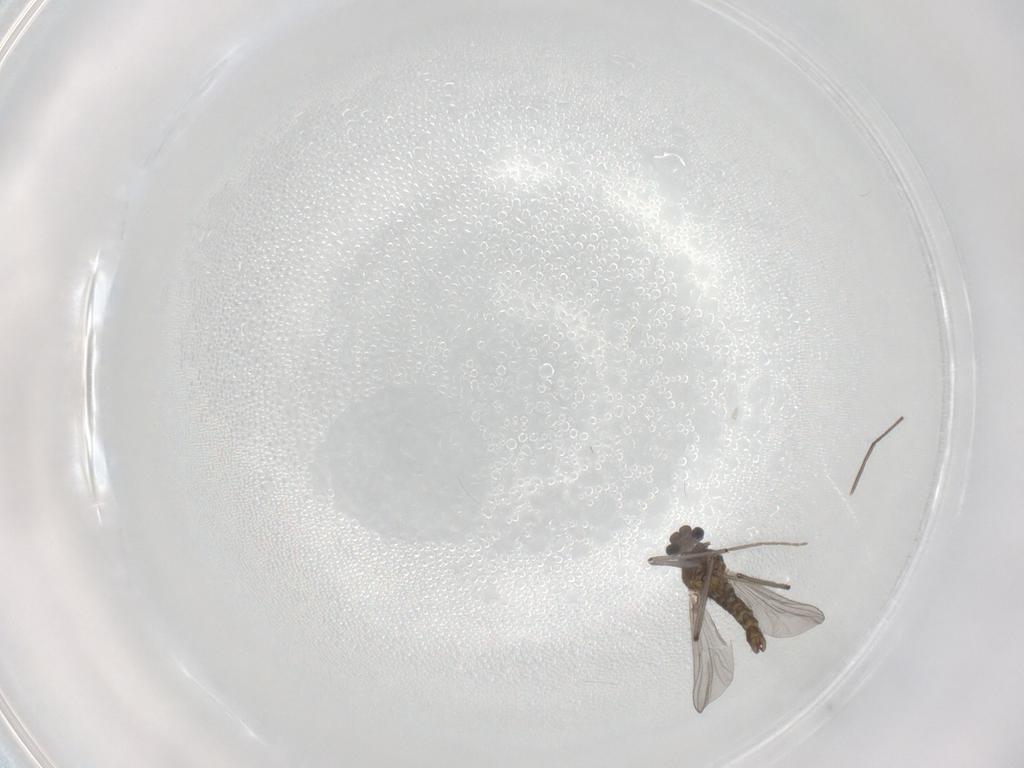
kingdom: Animalia
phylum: Arthropoda
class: Insecta
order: Diptera
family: Chironomidae
